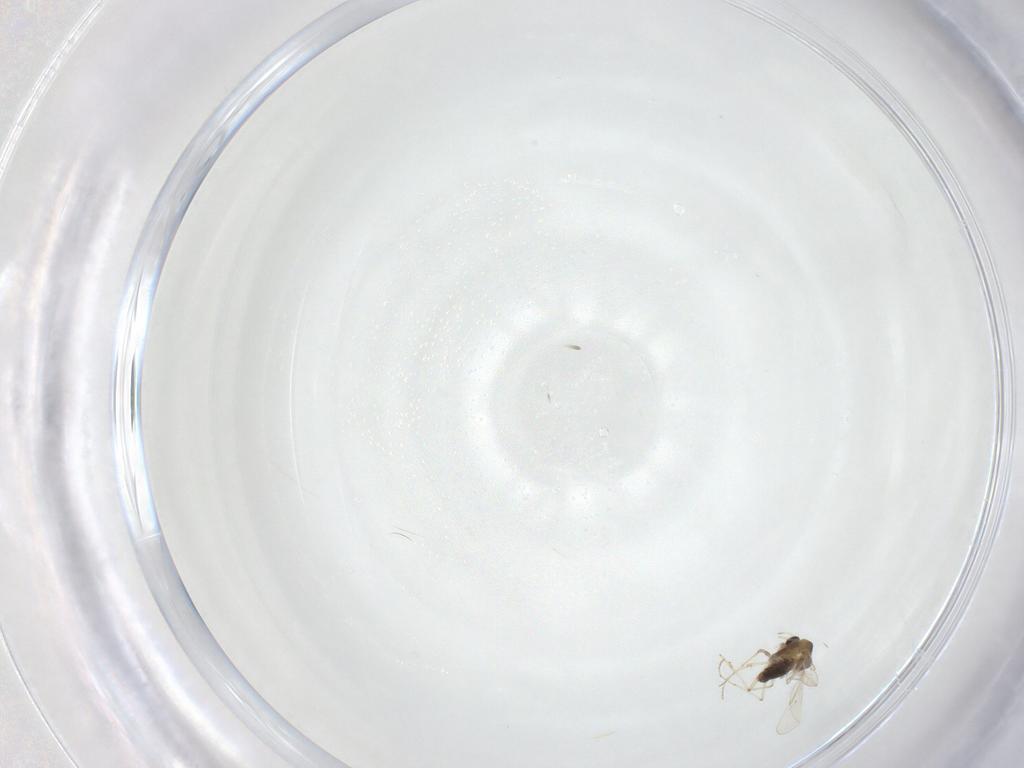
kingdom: Animalia
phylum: Arthropoda
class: Insecta
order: Diptera
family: Chironomidae
